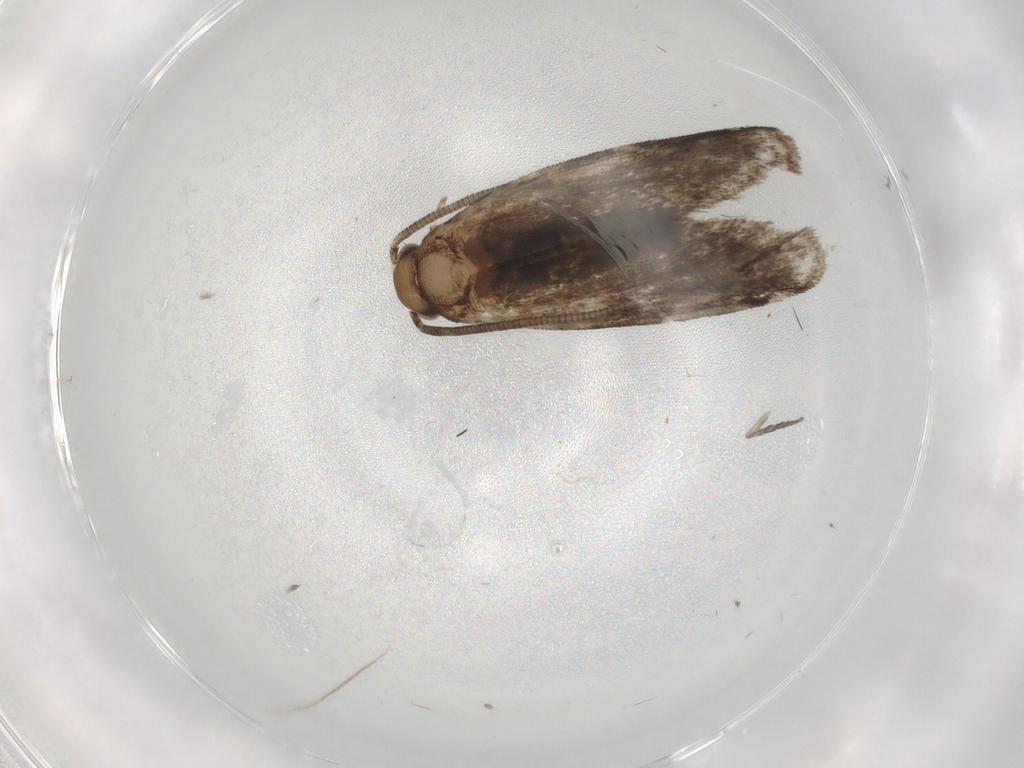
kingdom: Animalia
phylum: Arthropoda
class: Insecta
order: Lepidoptera
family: Dryadaulidae
